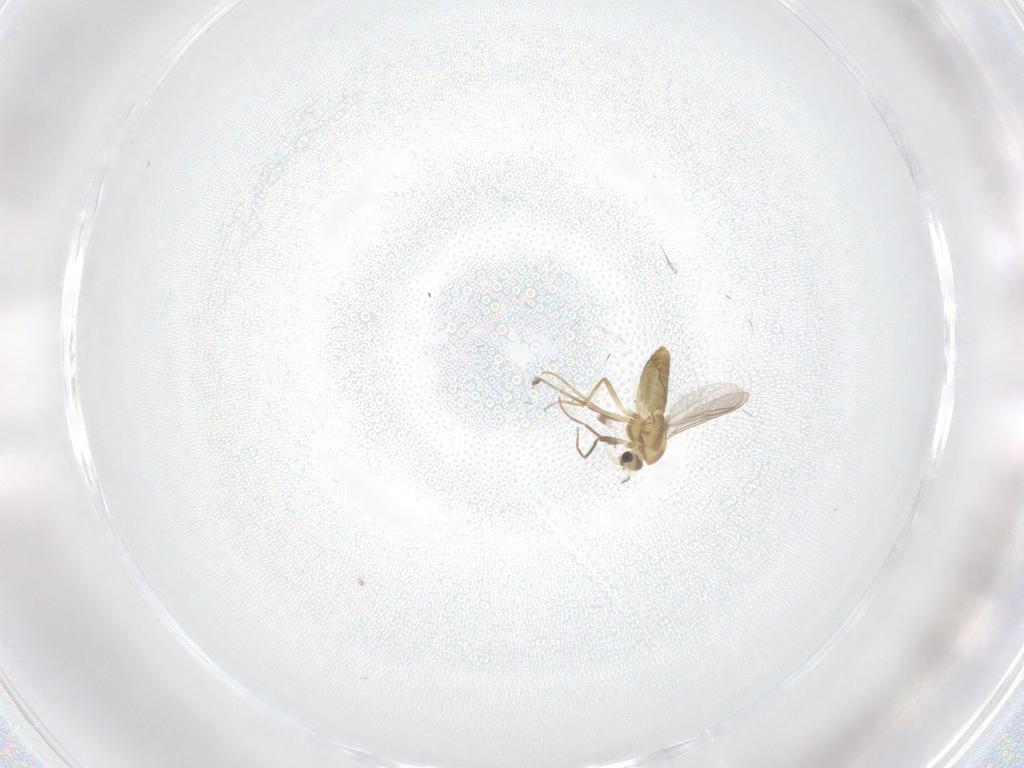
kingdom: Animalia
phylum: Arthropoda
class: Insecta
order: Diptera
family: Chironomidae
